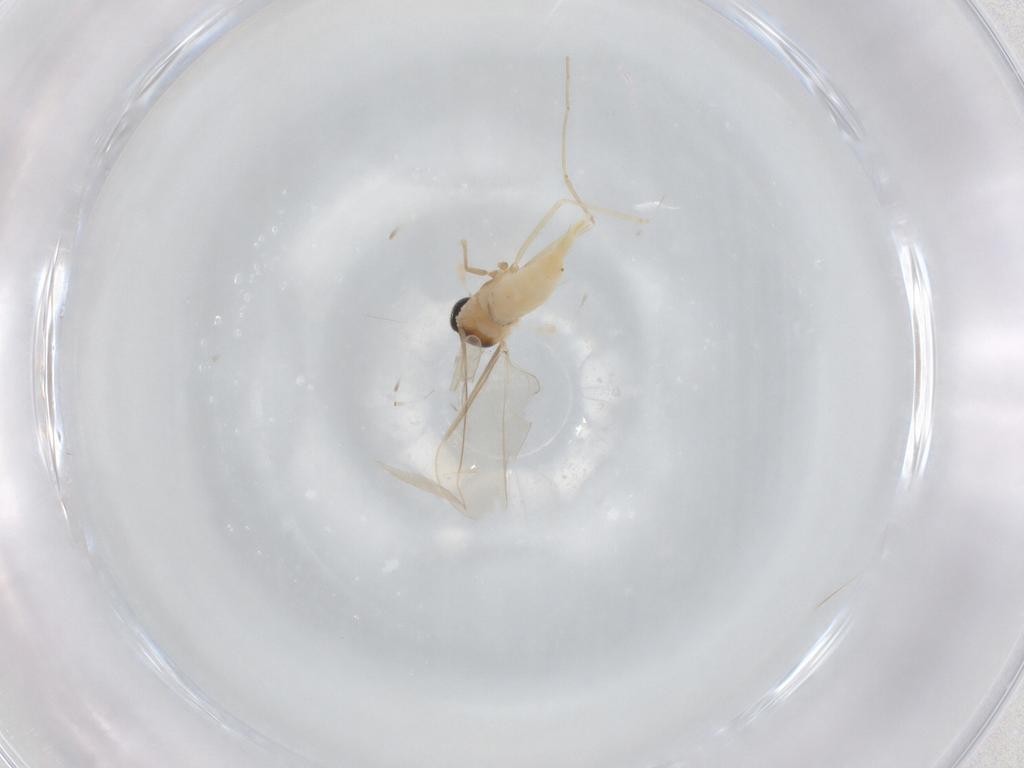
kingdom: Animalia
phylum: Arthropoda
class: Insecta
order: Diptera
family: Cecidomyiidae
